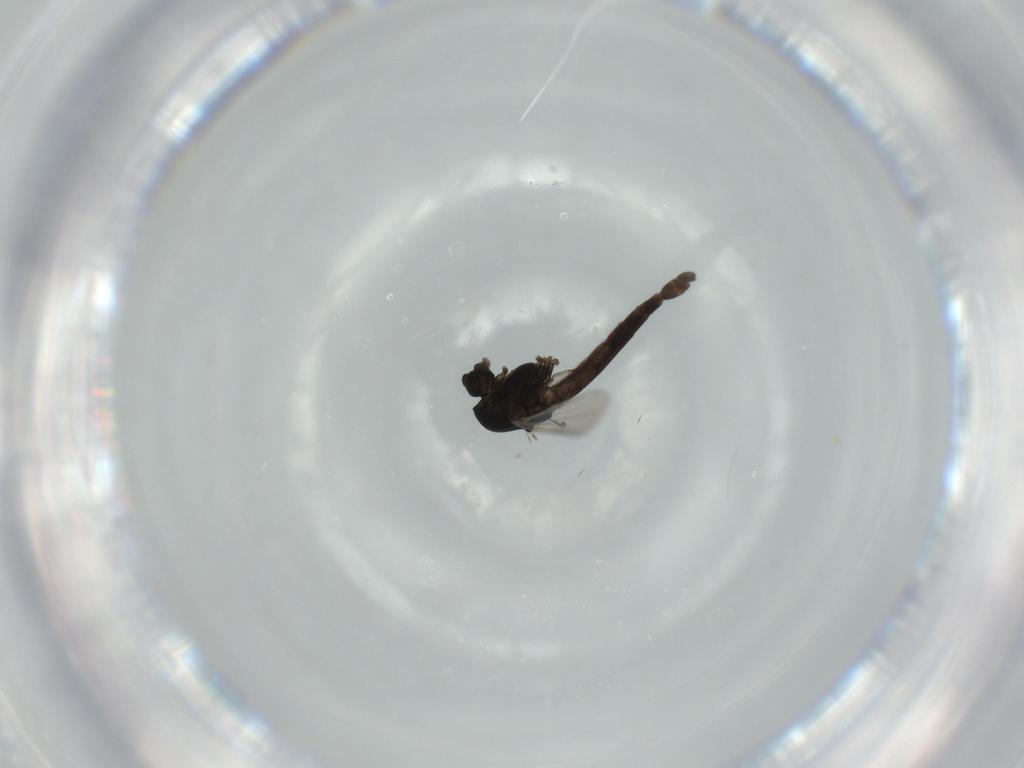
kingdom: Animalia
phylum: Arthropoda
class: Insecta
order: Diptera
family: Chironomidae
